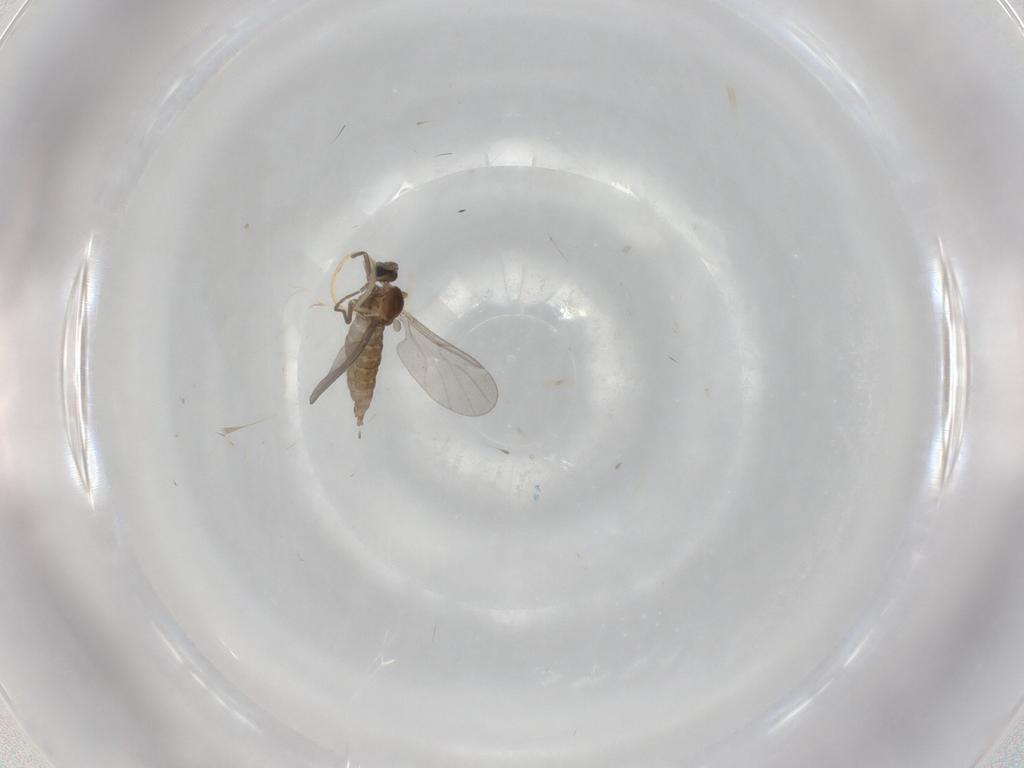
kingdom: Animalia
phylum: Arthropoda
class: Insecta
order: Diptera
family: Cecidomyiidae
